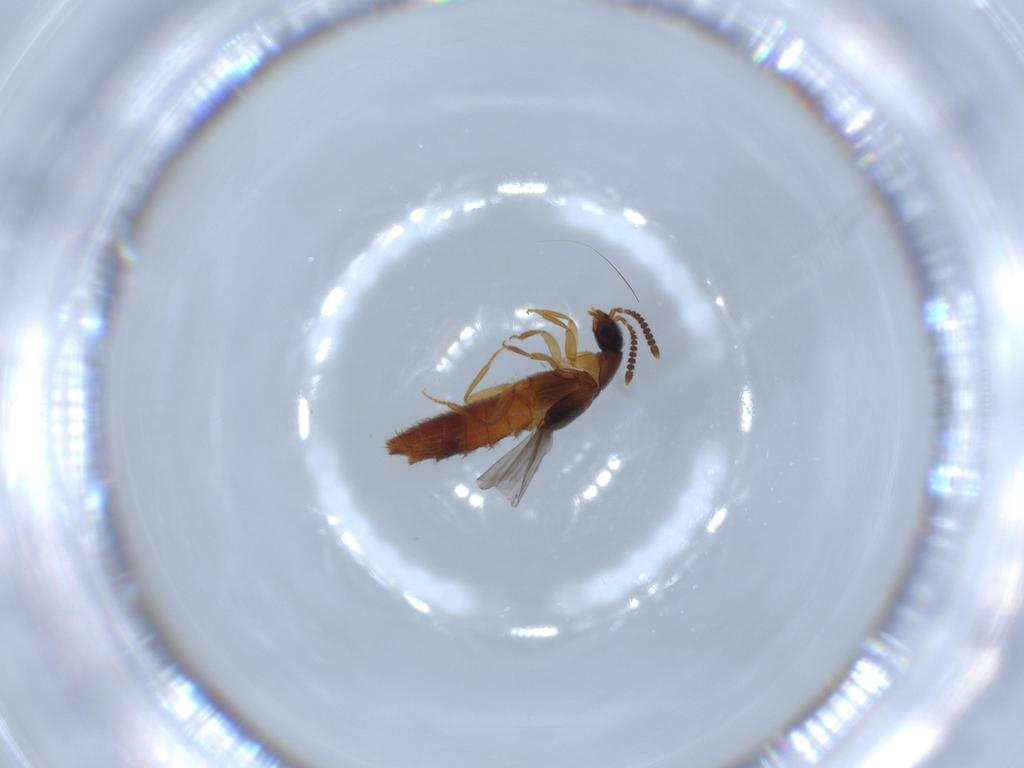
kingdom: Animalia
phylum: Arthropoda
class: Insecta
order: Coleoptera
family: Staphylinidae
